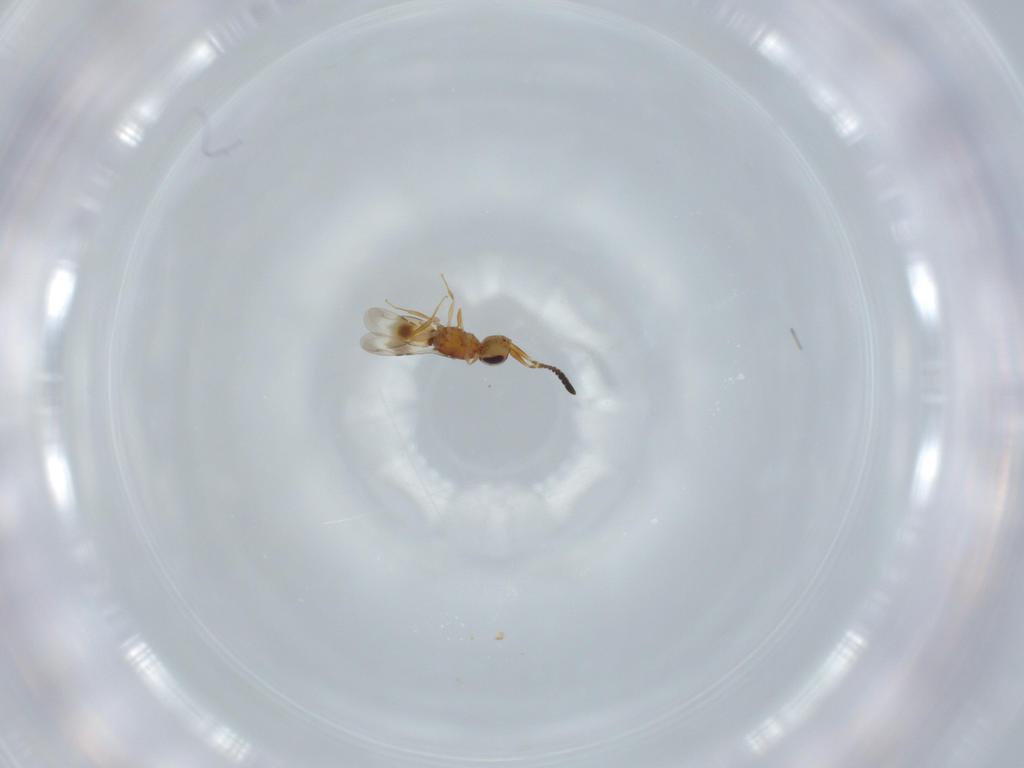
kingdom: Animalia
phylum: Arthropoda
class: Insecta
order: Hymenoptera
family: Ceraphronidae
